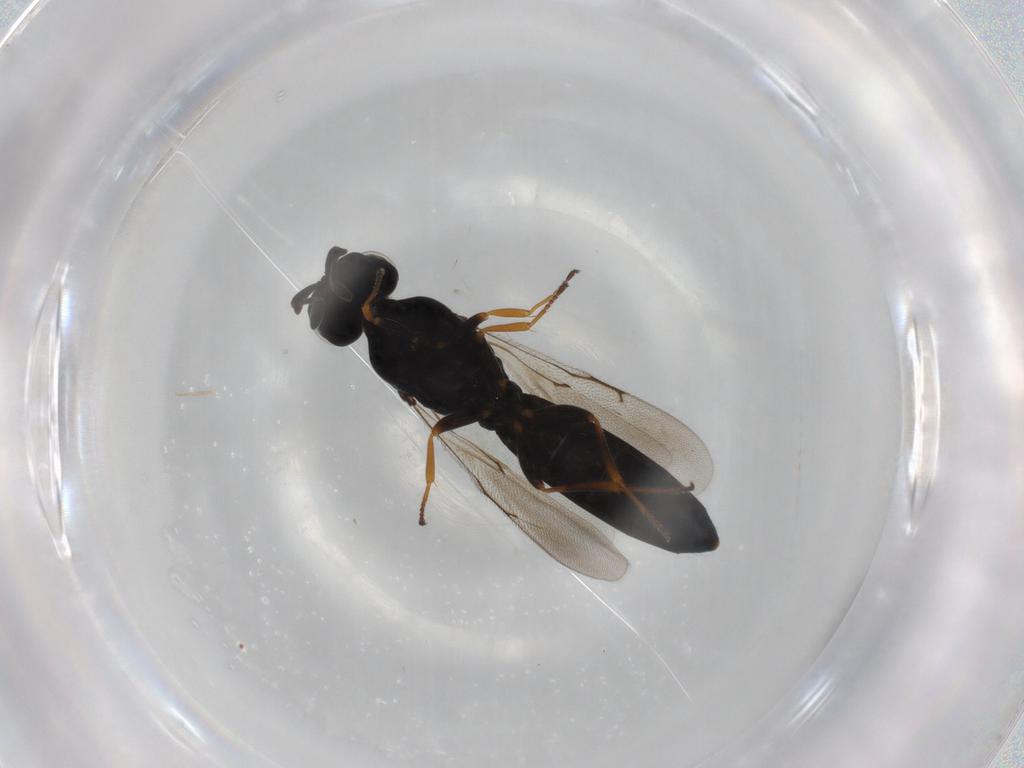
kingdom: Animalia
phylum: Arthropoda
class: Insecta
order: Hymenoptera
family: Scelionidae
